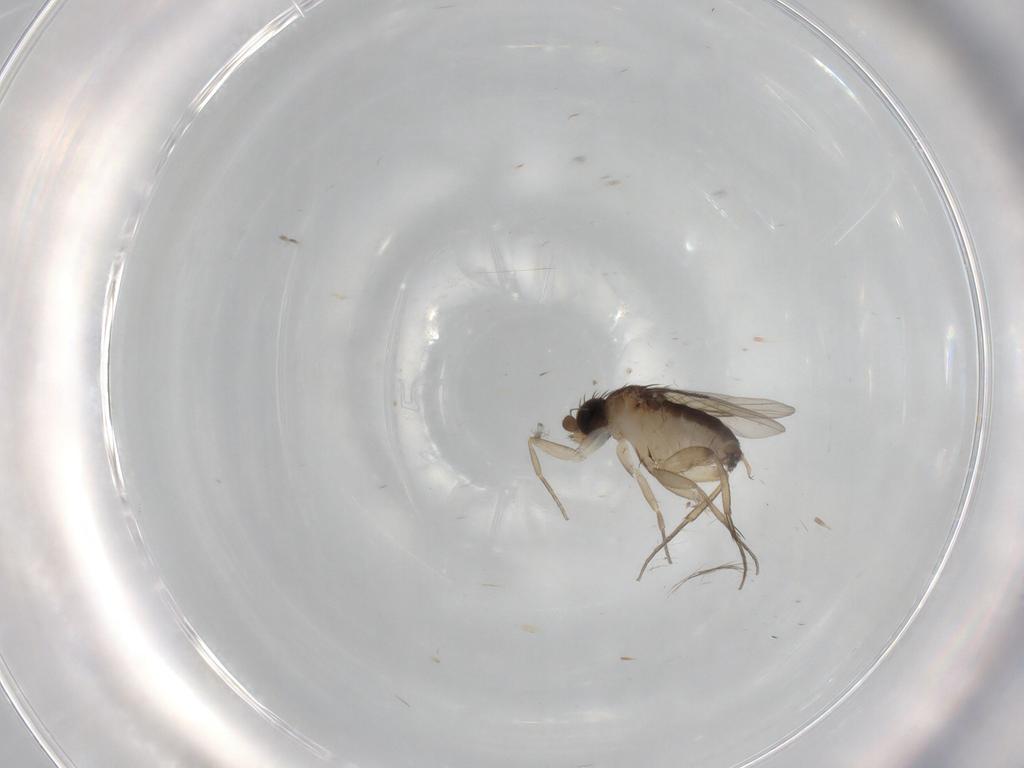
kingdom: Animalia
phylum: Arthropoda
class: Insecta
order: Diptera
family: Phoridae
